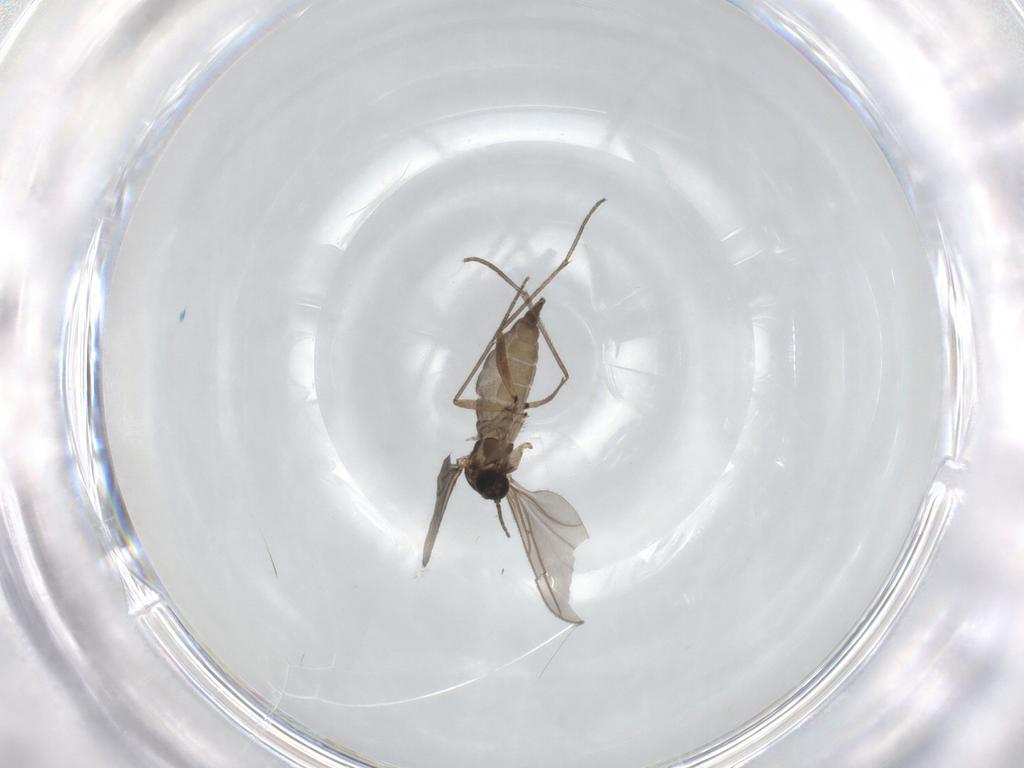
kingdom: Animalia
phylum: Arthropoda
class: Insecta
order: Diptera
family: Sciaridae
